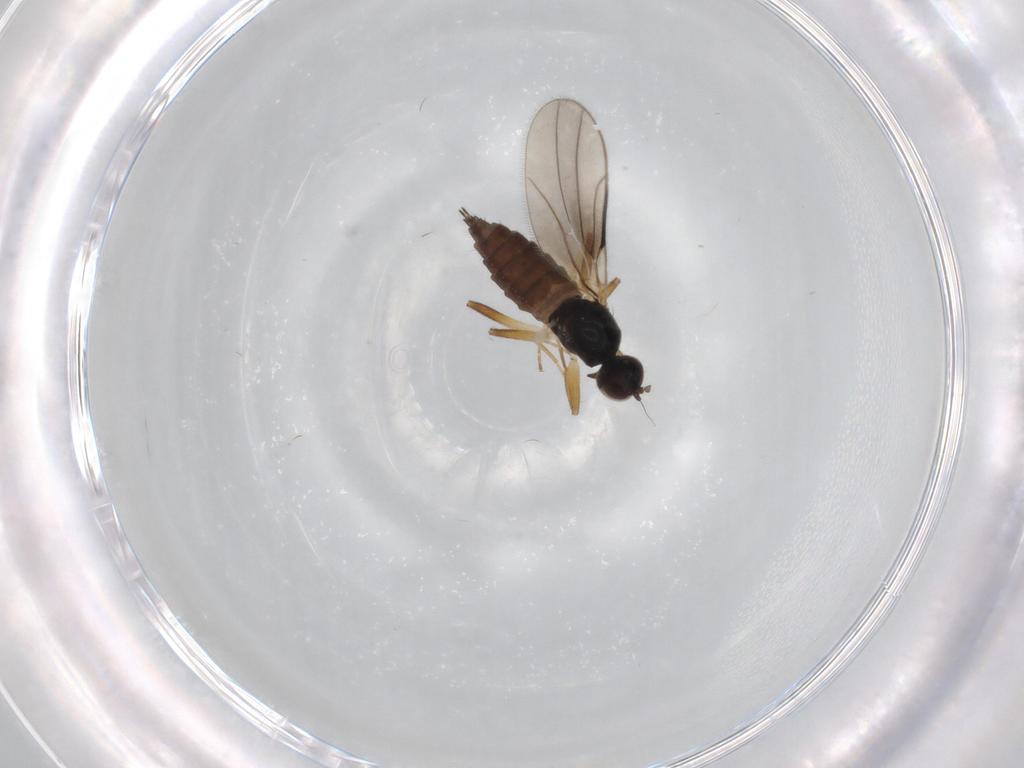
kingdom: Animalia
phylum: Arthropoda
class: Insecta
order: Diptera
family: Hybotidae
